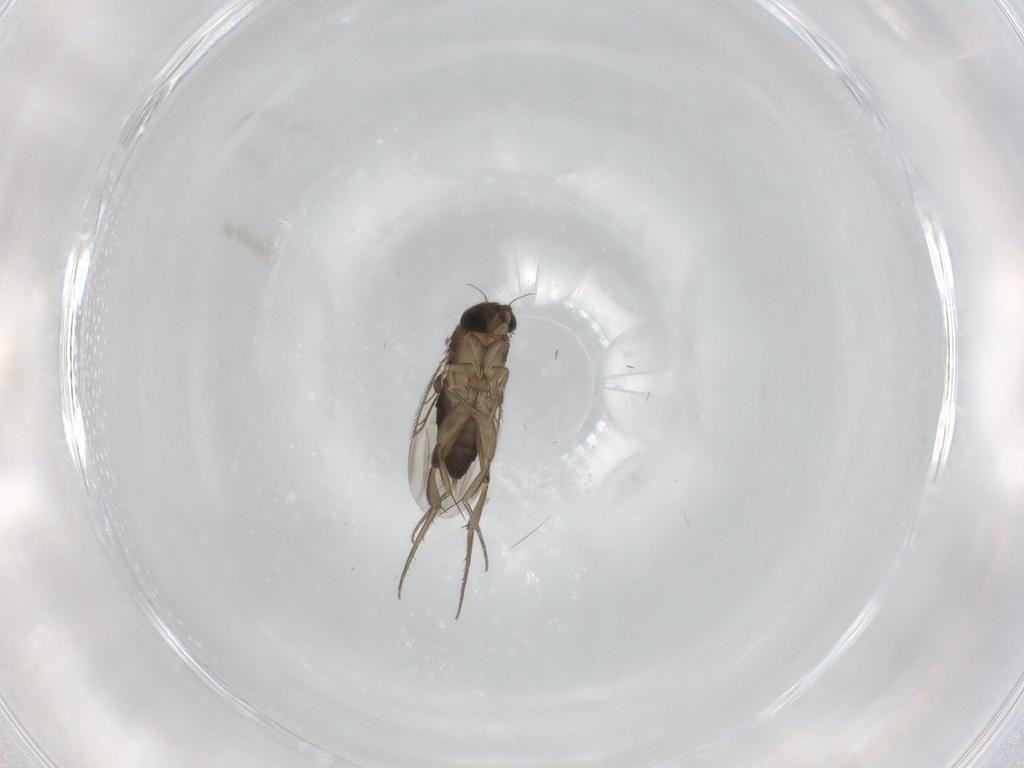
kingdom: Animalia
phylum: Arthropoda
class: Insecta
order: Diptera
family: Phoridae
